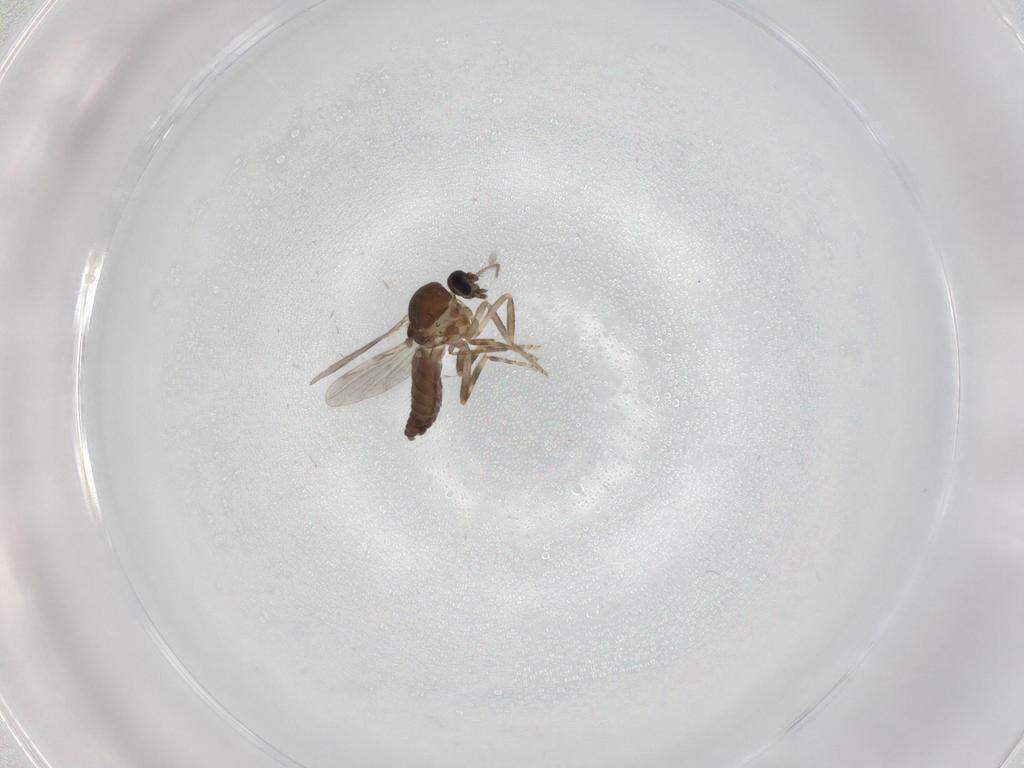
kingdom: Animalia
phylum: Arthropoda
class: Insecta
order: Diptera
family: Ceratopogonidae
